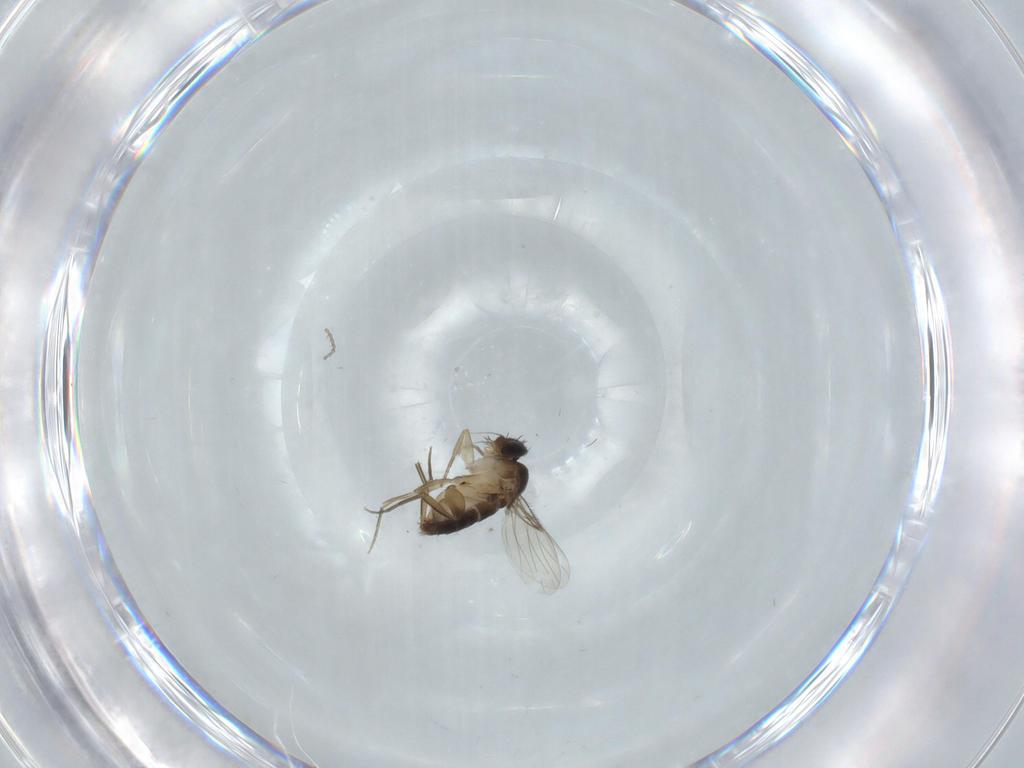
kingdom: Animalia
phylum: Arthropoda
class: Insecta
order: Diptera
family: Cecidomyiidae
